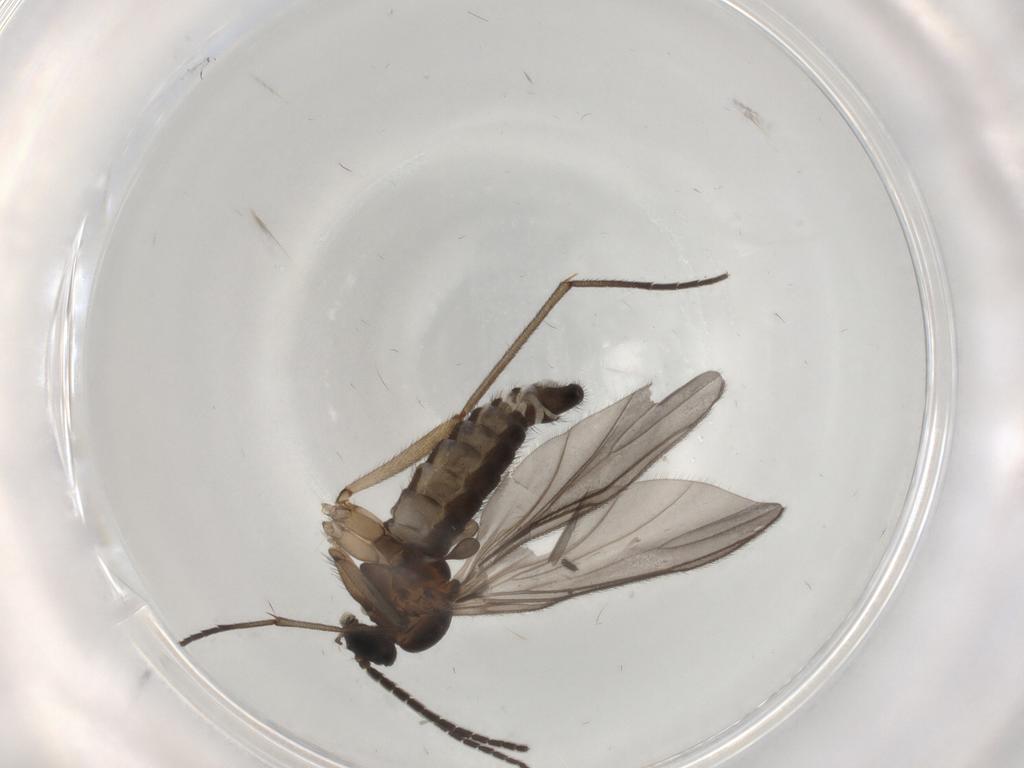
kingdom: Animalia
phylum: Arthropoda
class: Insecta
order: Diptera
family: Sciaridae
